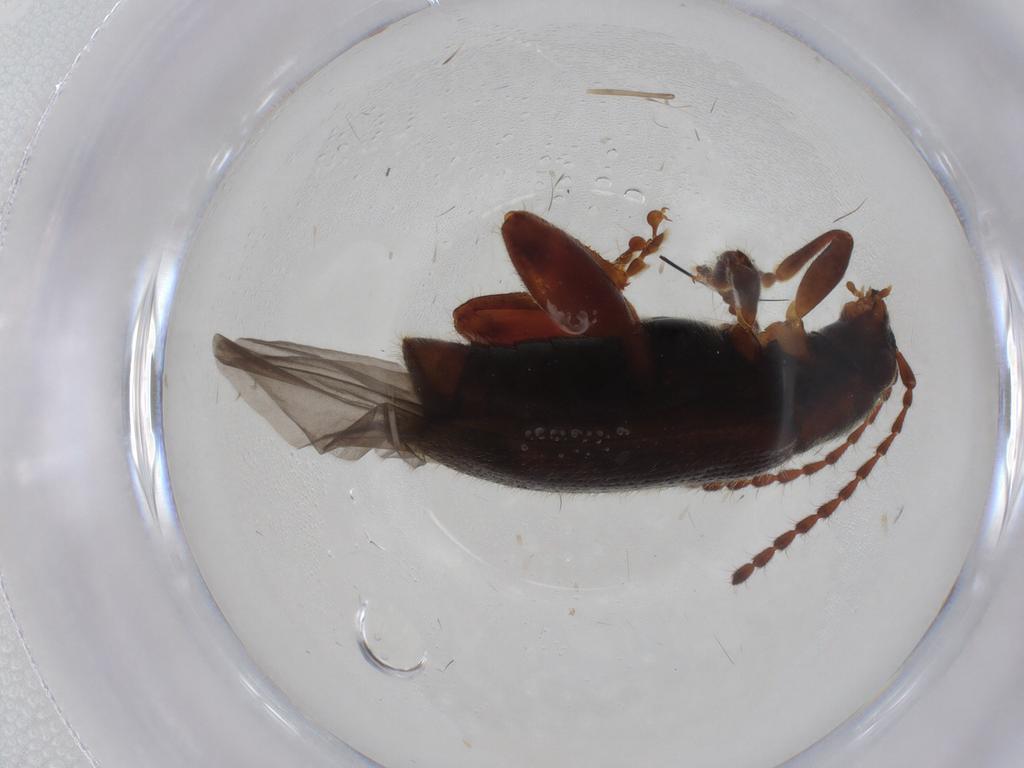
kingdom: Animalia
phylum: Arthropoda
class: Insecta
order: Coleoptera
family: Chrysomelidae
